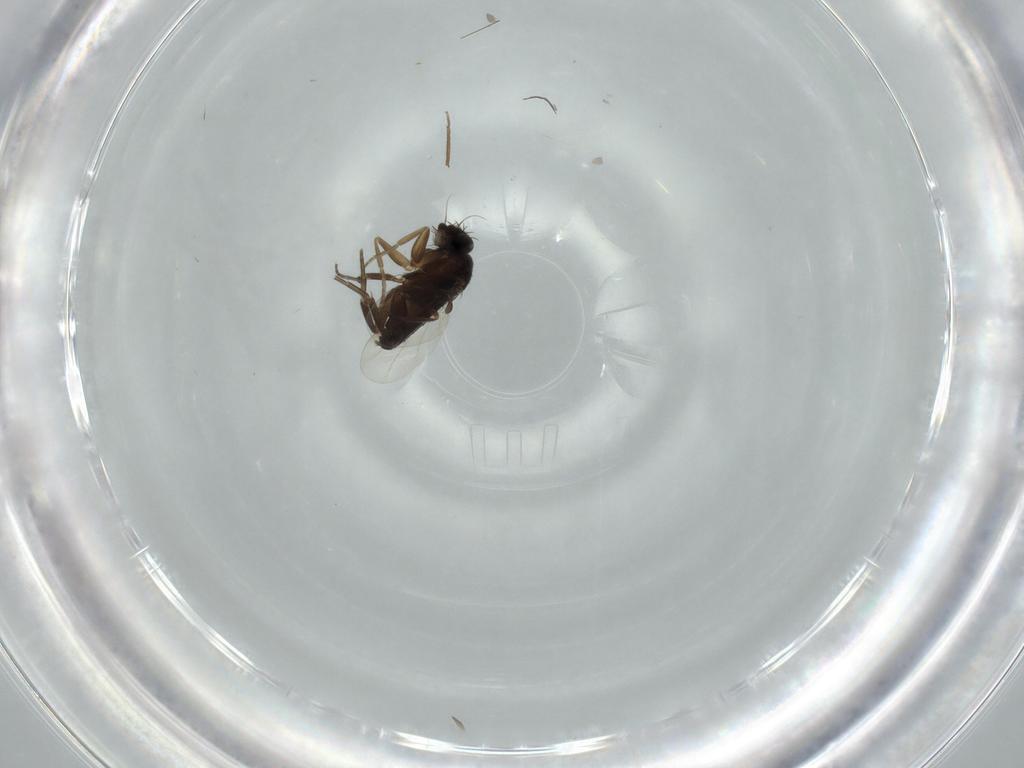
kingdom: Animalia
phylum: Arthropoda
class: Insecta
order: Diptera
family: Phoridae
